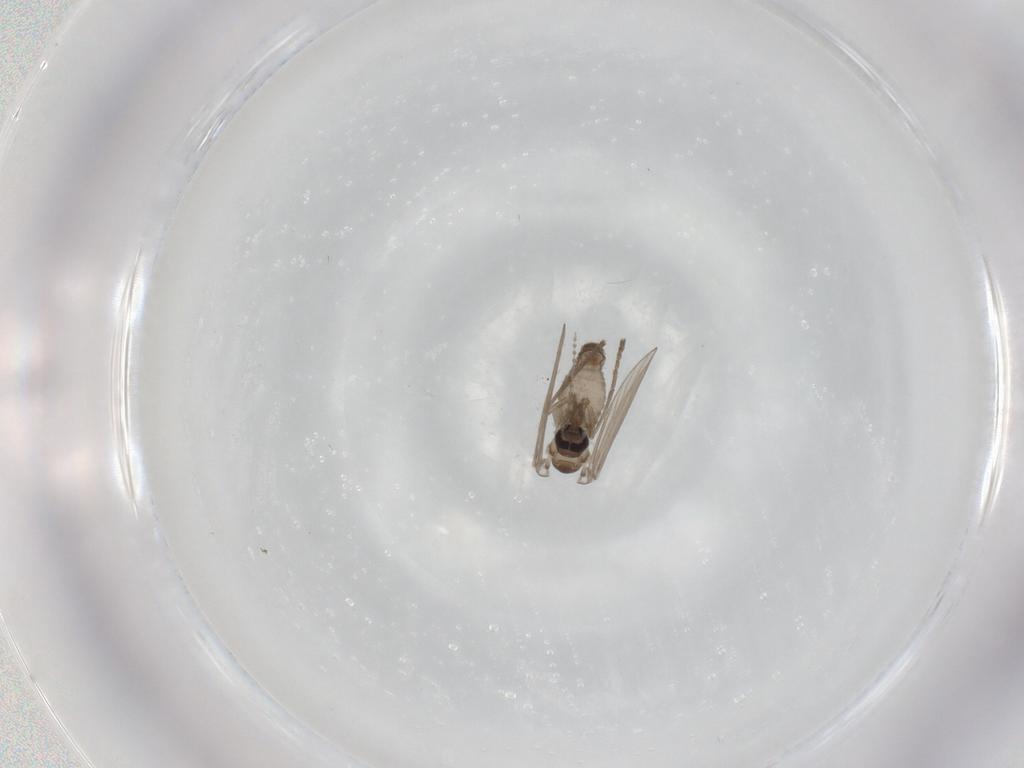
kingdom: Animalia
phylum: Arthropoda
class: Insecta
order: Diptera
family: Psychodidae
